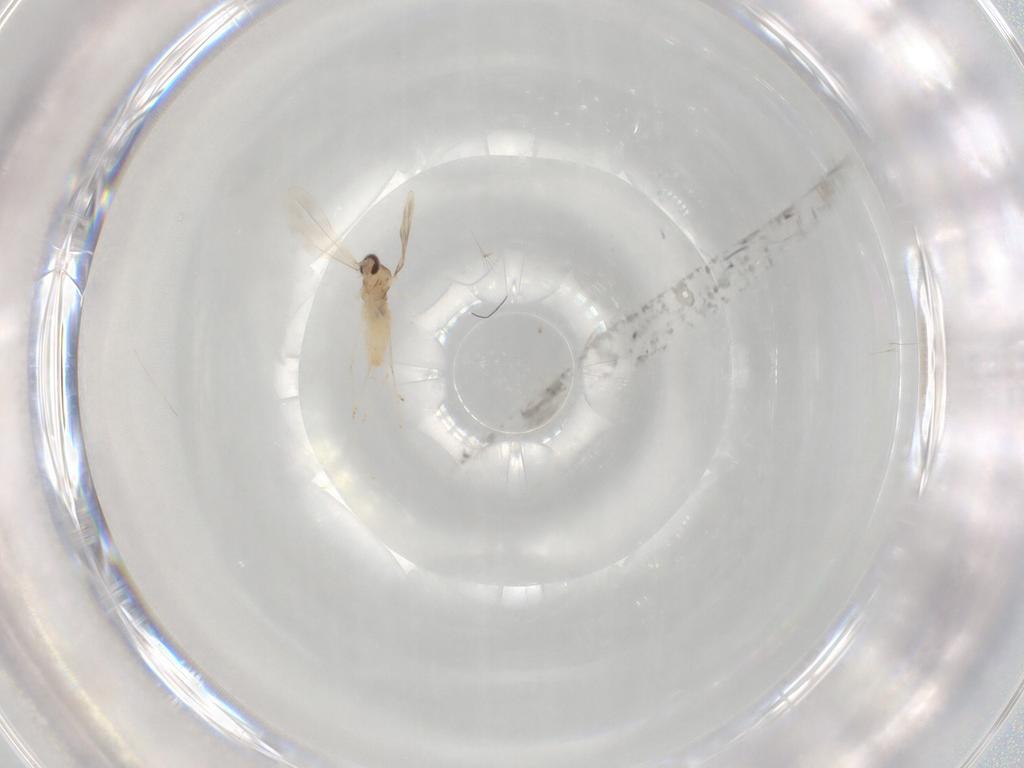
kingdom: Animalia
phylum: Arthropoda
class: Insecta
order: Diptera
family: Cecidomyiidae
